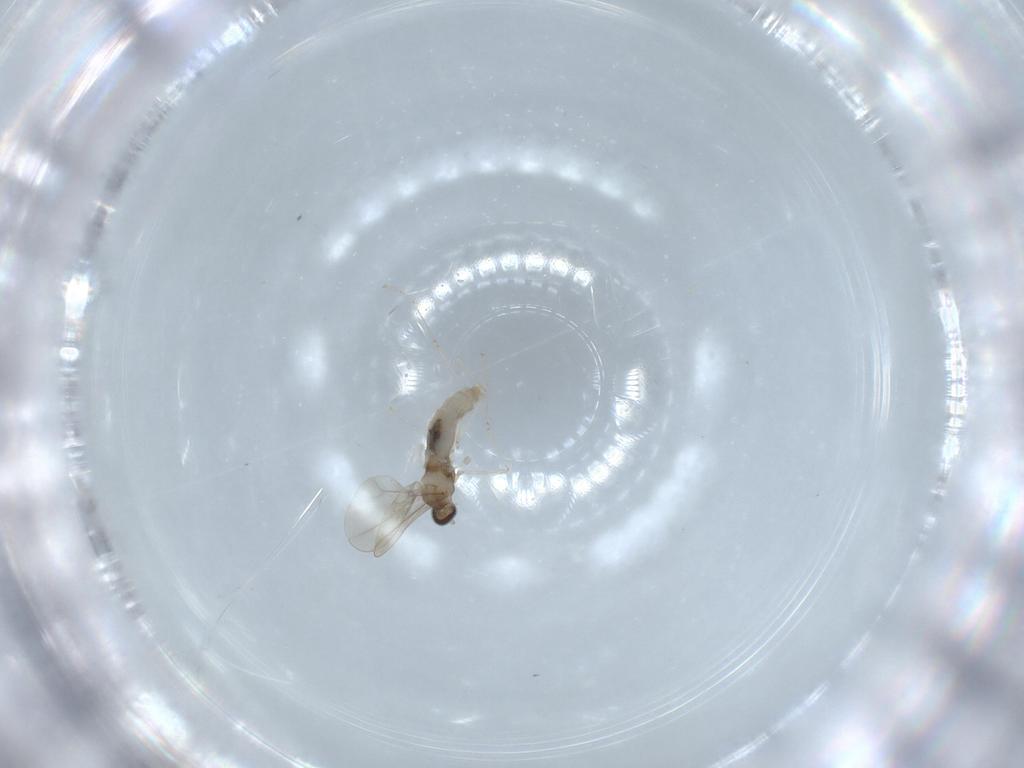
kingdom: Animalia
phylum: Arthropoda
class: Insecta
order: Diptera
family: Cecidomyiidae
